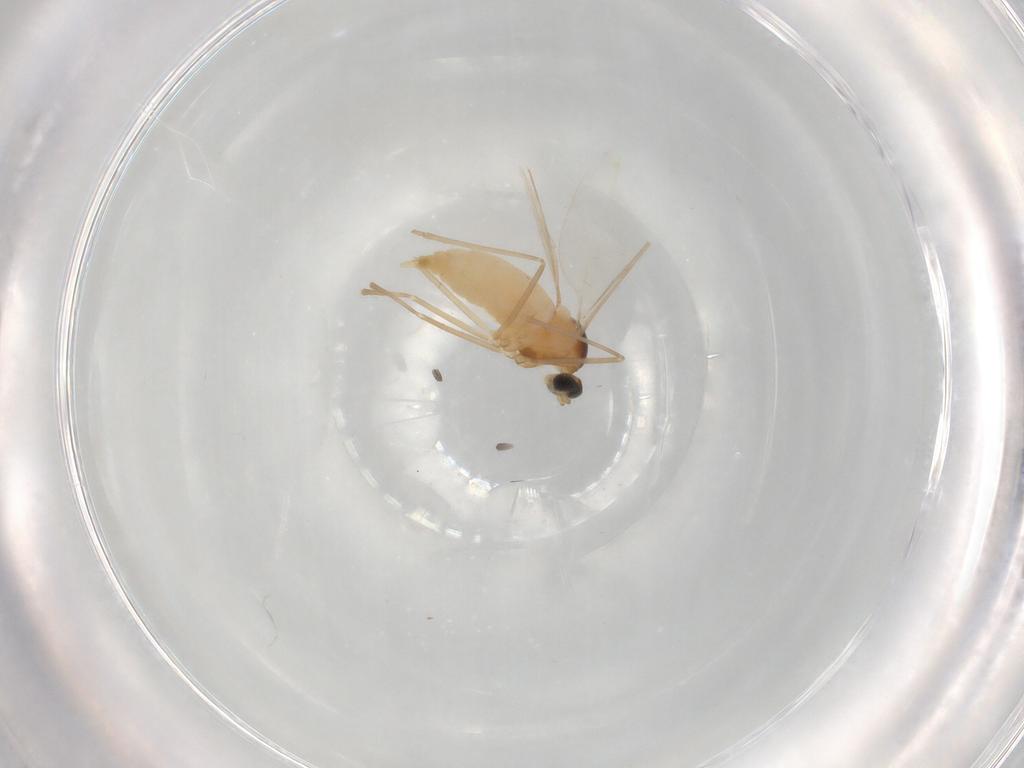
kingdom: Animalia
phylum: Arthropoda
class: Insecta
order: Diptera
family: Cecidomyiidae
